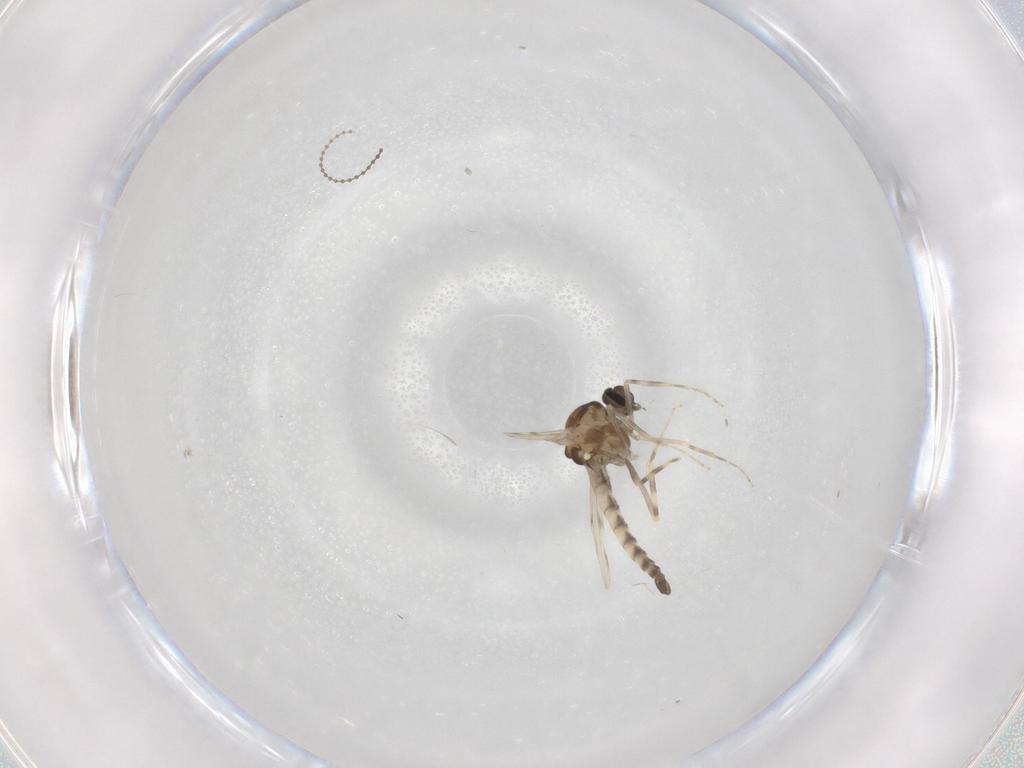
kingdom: Animalia
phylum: Arthropoda
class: Insecta
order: Diptera
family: Ceratopogonidae
